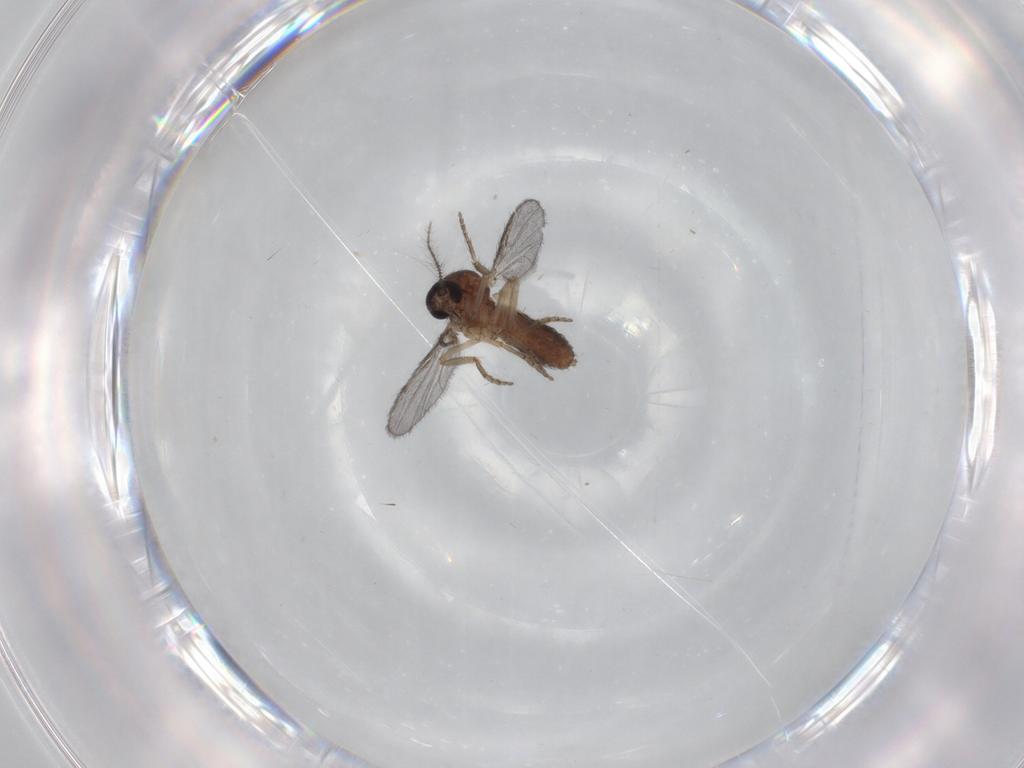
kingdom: Animalia
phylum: Arthropoda
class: Insecta
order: Diptera
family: Ceratopogonidae
